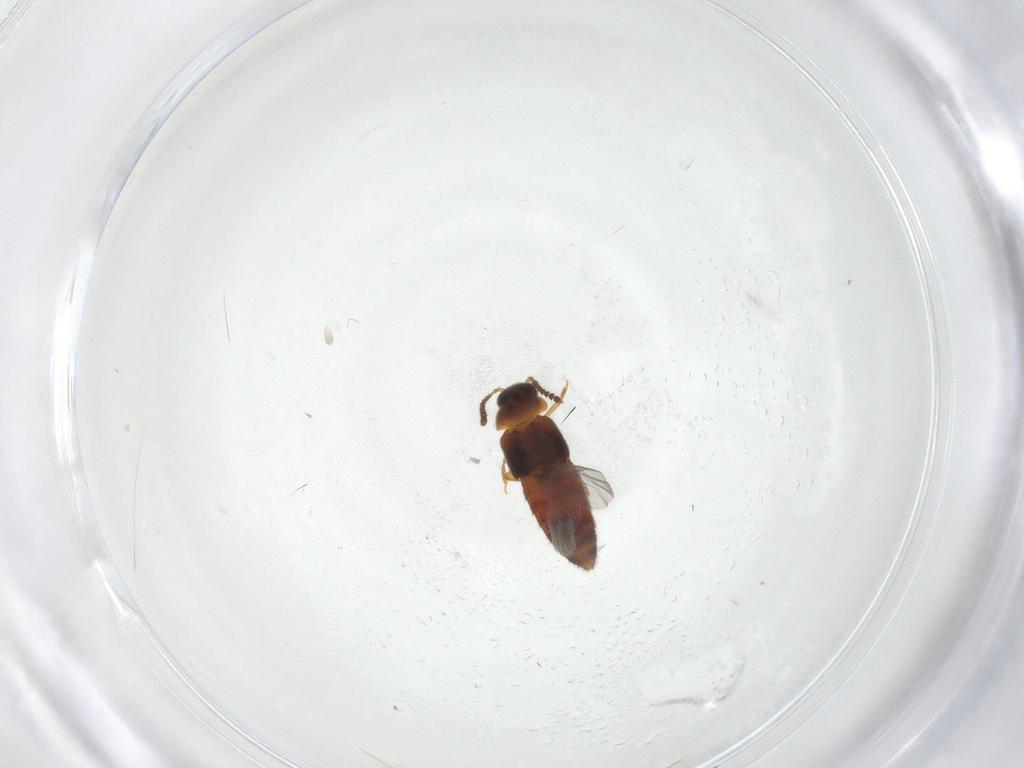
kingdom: Animalia
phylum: Arthropoda
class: Insecta
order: Coleoptera
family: Staphylinidae
